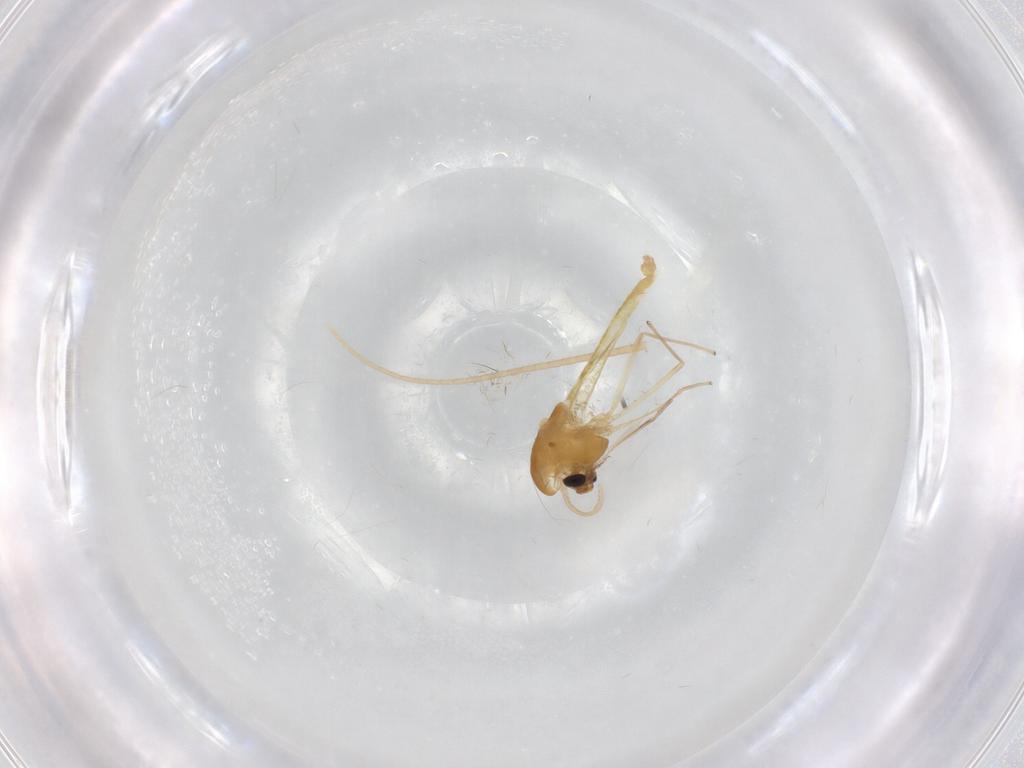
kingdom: Animalia
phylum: Arthropoda
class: Insecta
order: Diptera
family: Chironomidae
